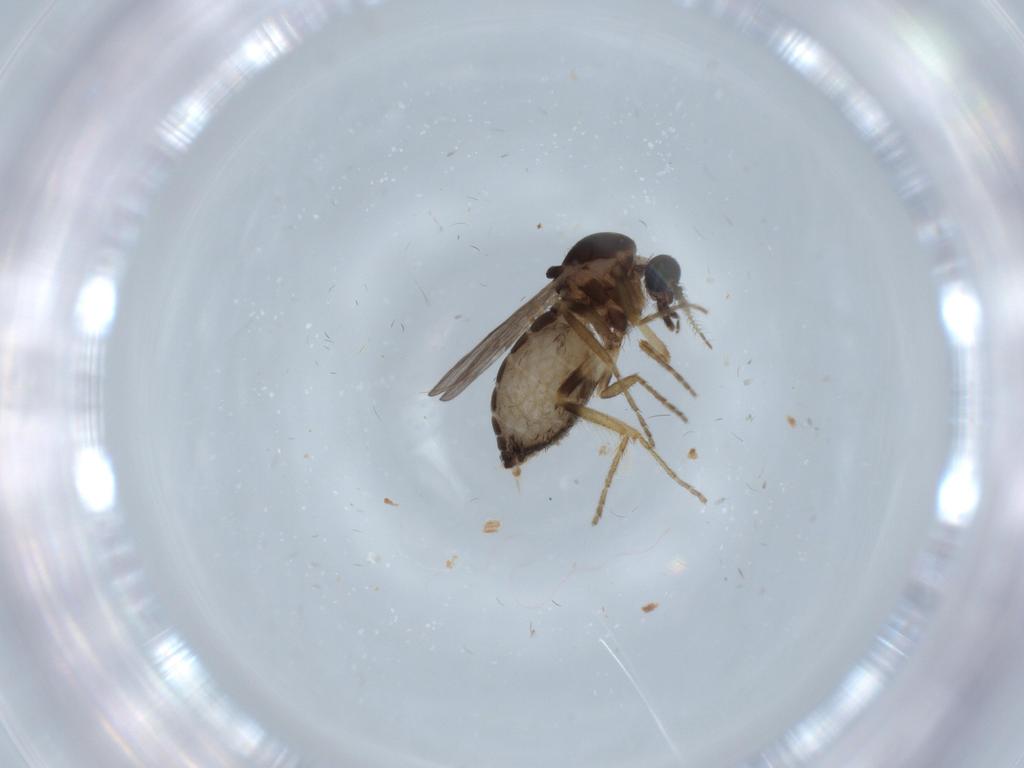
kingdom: Animalia
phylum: Arthropoda
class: Insecta
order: Diptera
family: Ceratopogonidae
